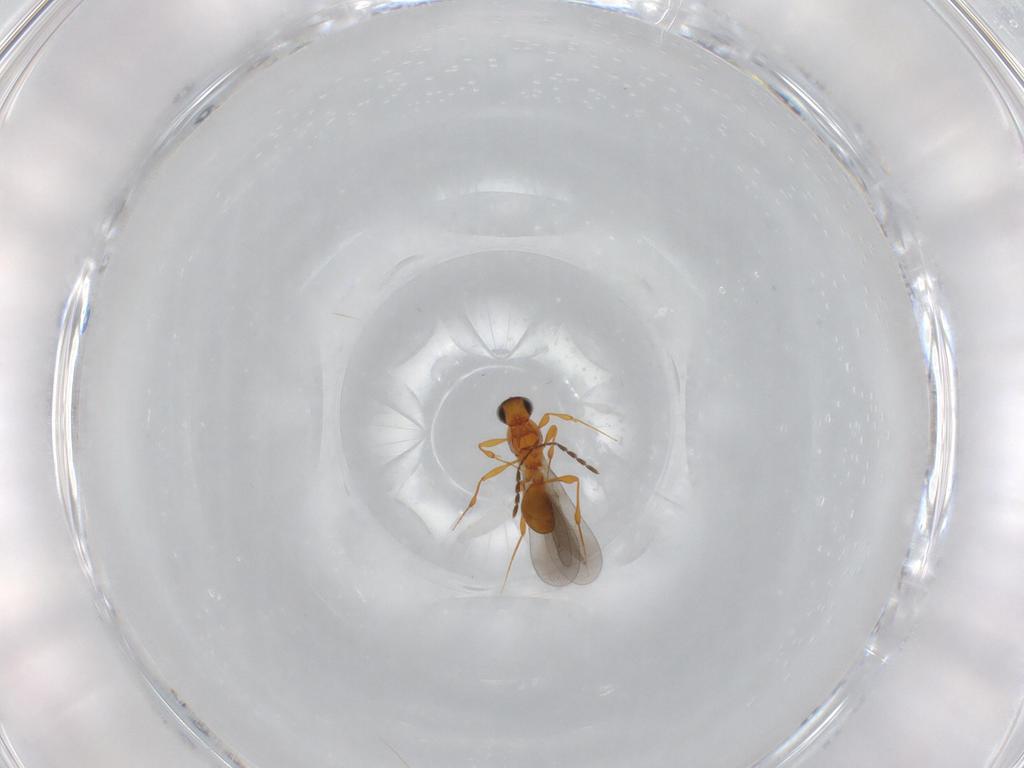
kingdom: Animalia
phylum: Arthropoda
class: Insecta
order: Hymenoptera
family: Platygastridae
